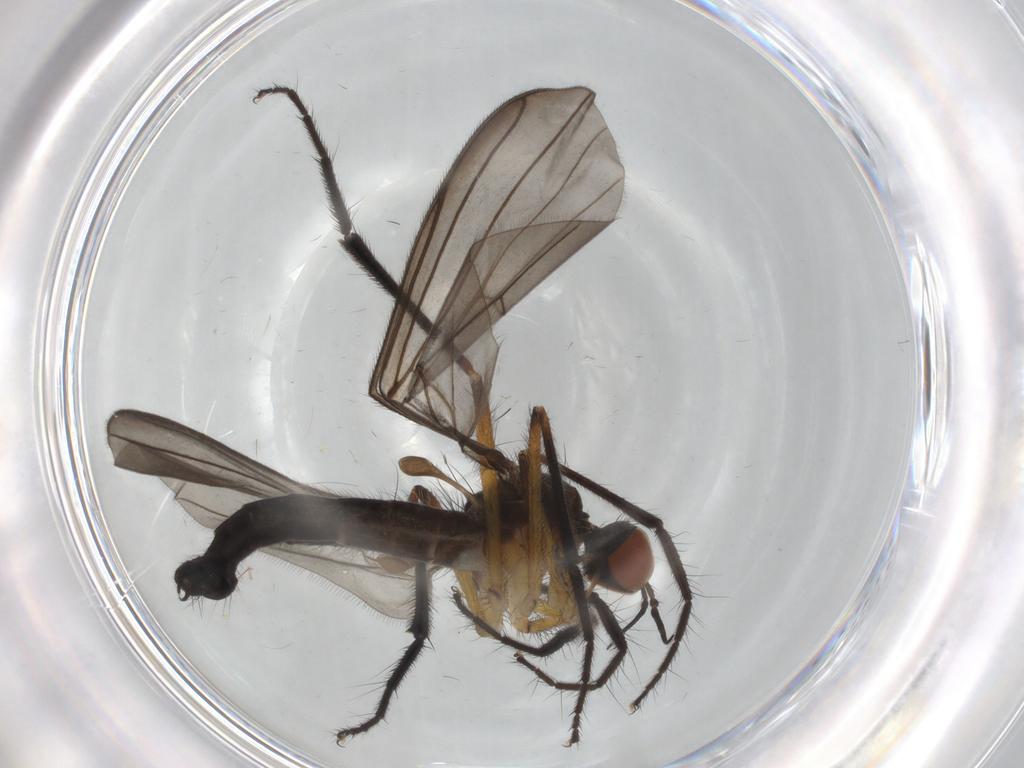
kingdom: Animalia
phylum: Arthropoda
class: Insecta
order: Diptera
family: Empididae
